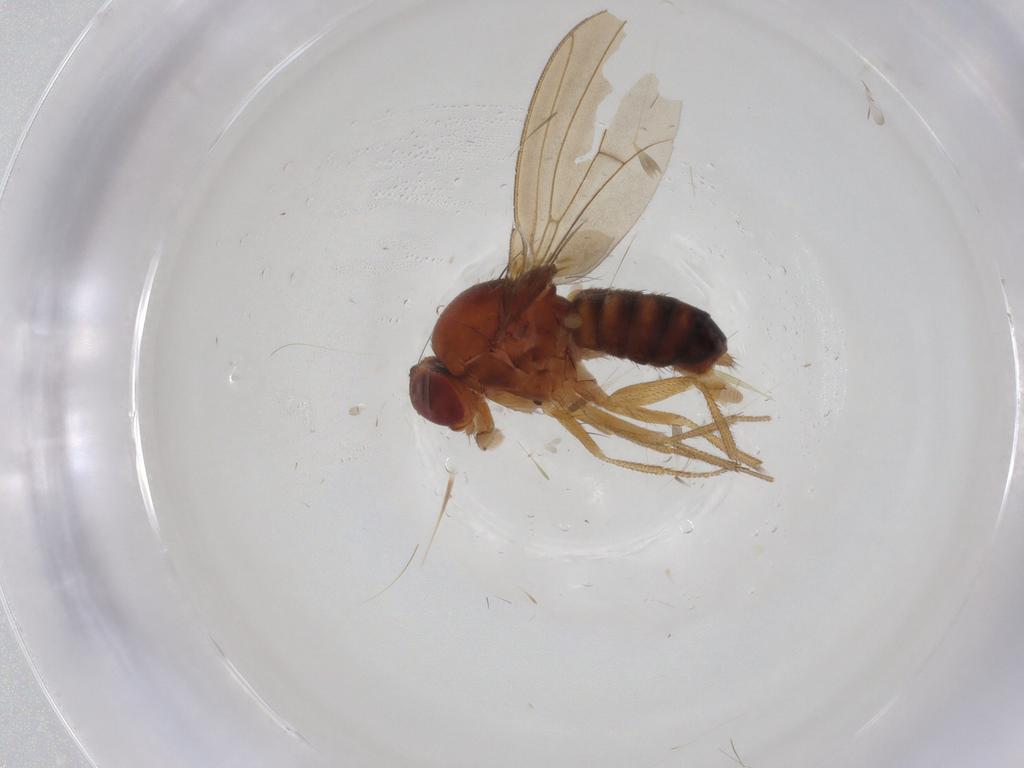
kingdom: Animalia
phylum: Arthropoda
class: Insecta
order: Diptera
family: Drosophilidae
